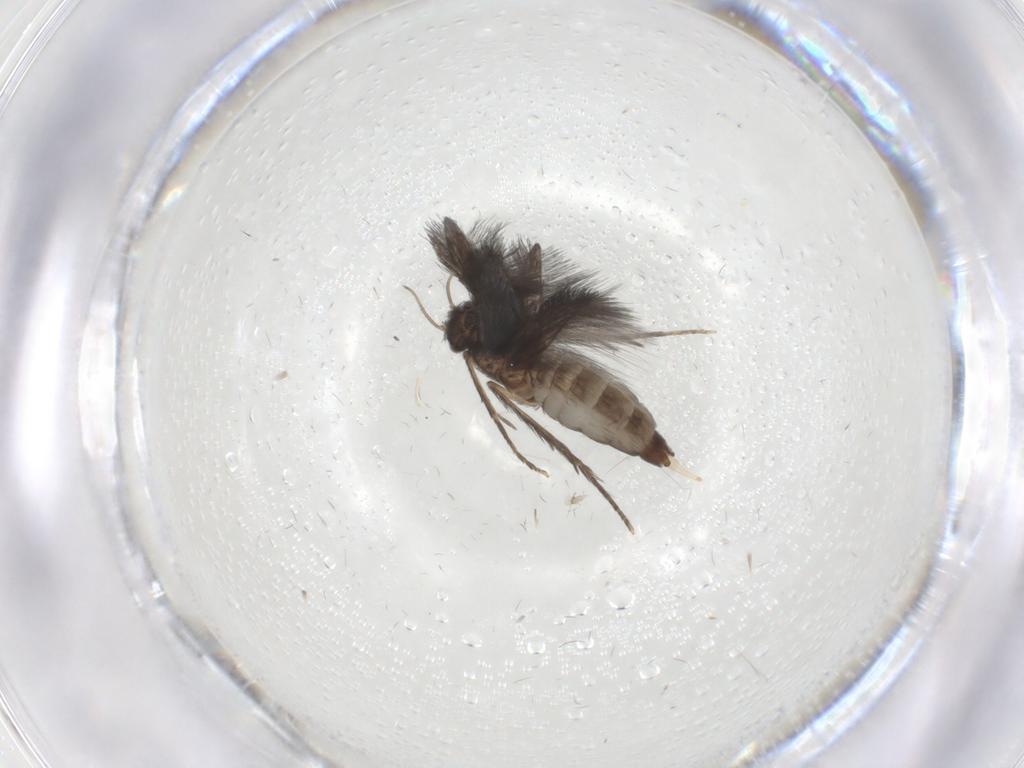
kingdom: Animalia
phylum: Arthropoda
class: Insecta
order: Trichoptera
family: Hydroptilidae
